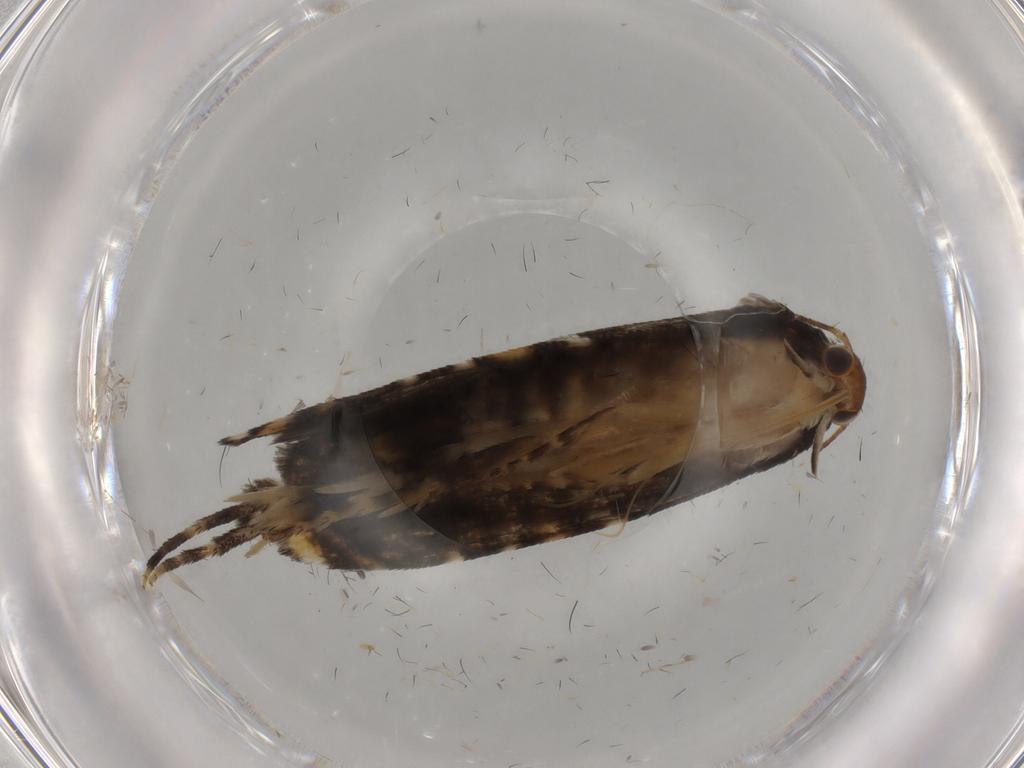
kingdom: Animalia
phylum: Arthropoda
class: Insecta
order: Lepidoptera
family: Glyphipterigidae
